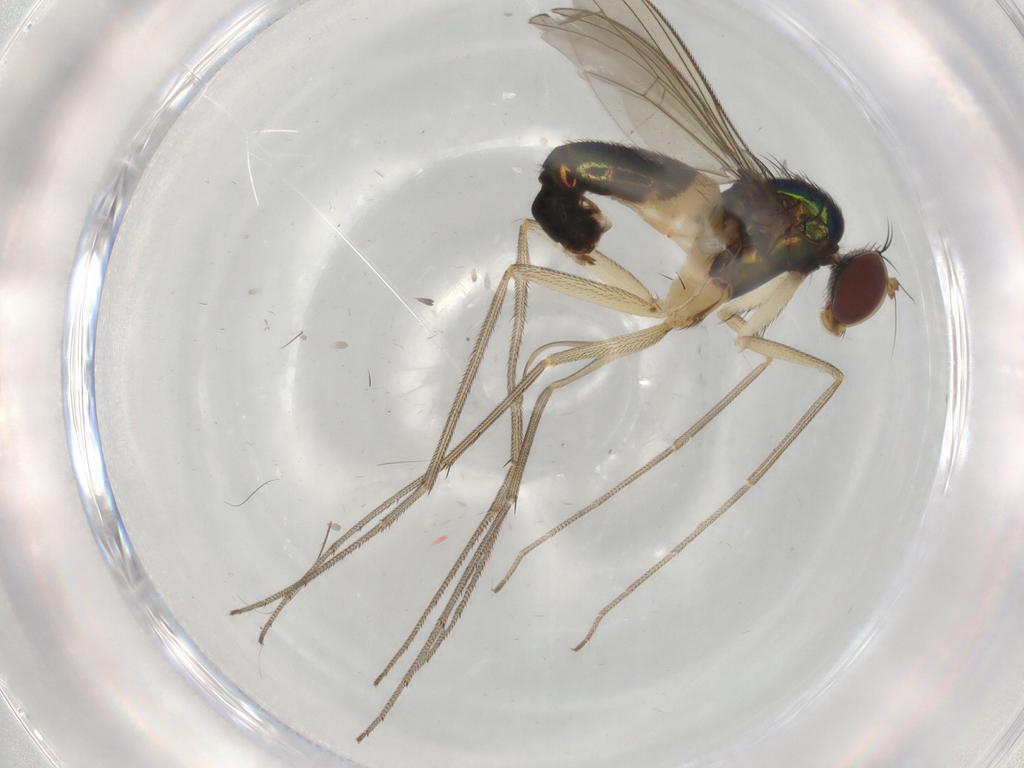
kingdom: Animalia
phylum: Arthropoda
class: Insecta
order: Diptera
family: Dolichopodidae
